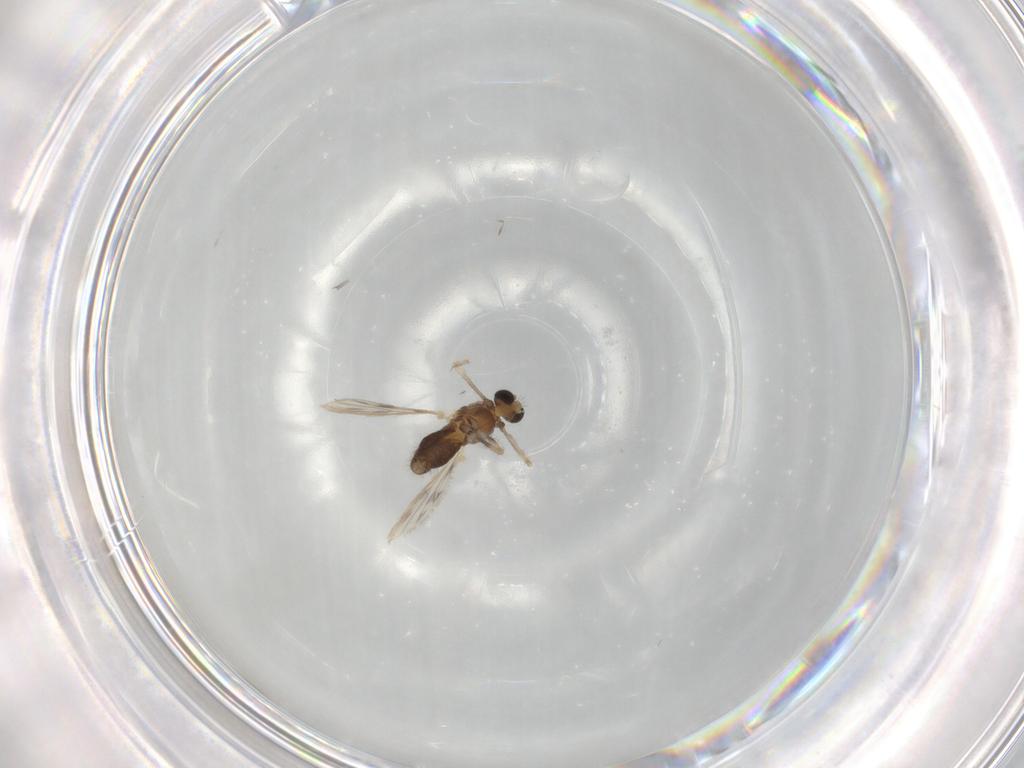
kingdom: Animalia
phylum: Arthropoda
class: Insecta
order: Diptera
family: Chironomidae
